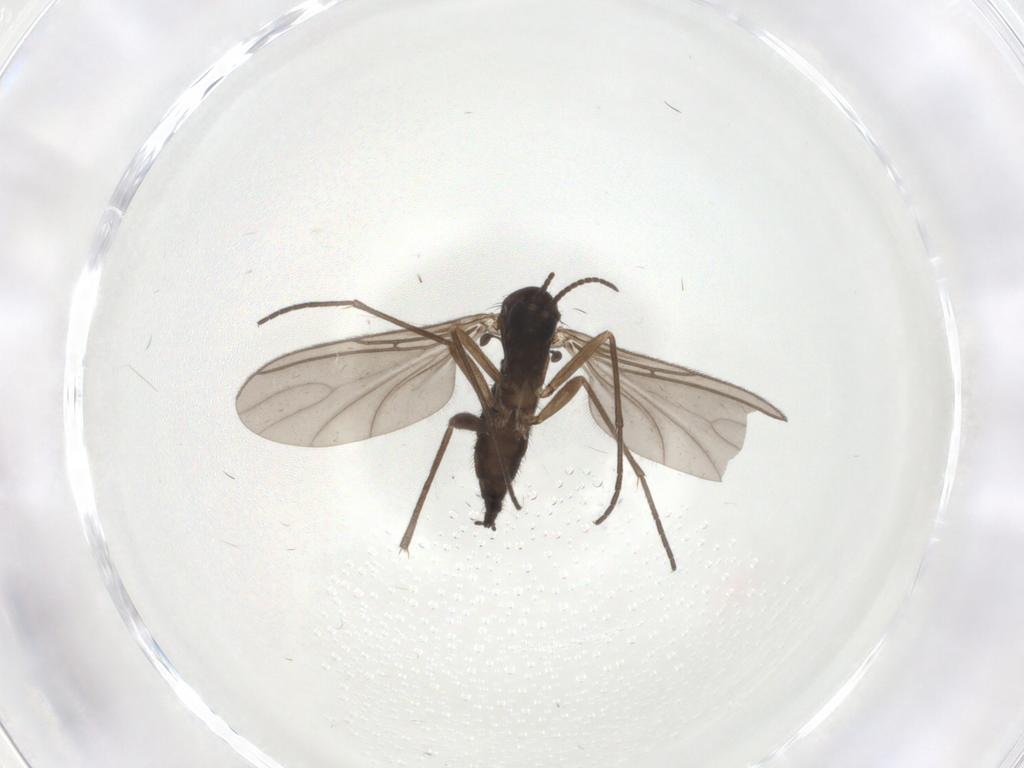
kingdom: Animalia
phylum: Arthropoda
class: Insecta
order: Diptera
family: Sciaridae
